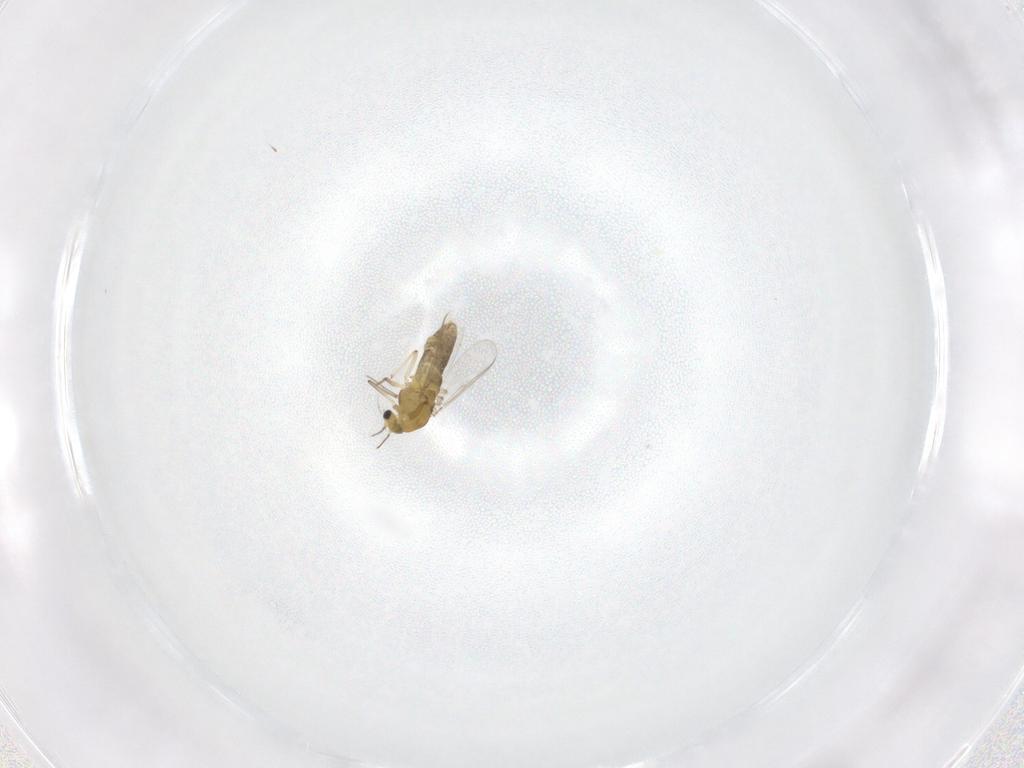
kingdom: Animalia
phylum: Arthropoda
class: Insecta
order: Diptera
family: Chironomidae
